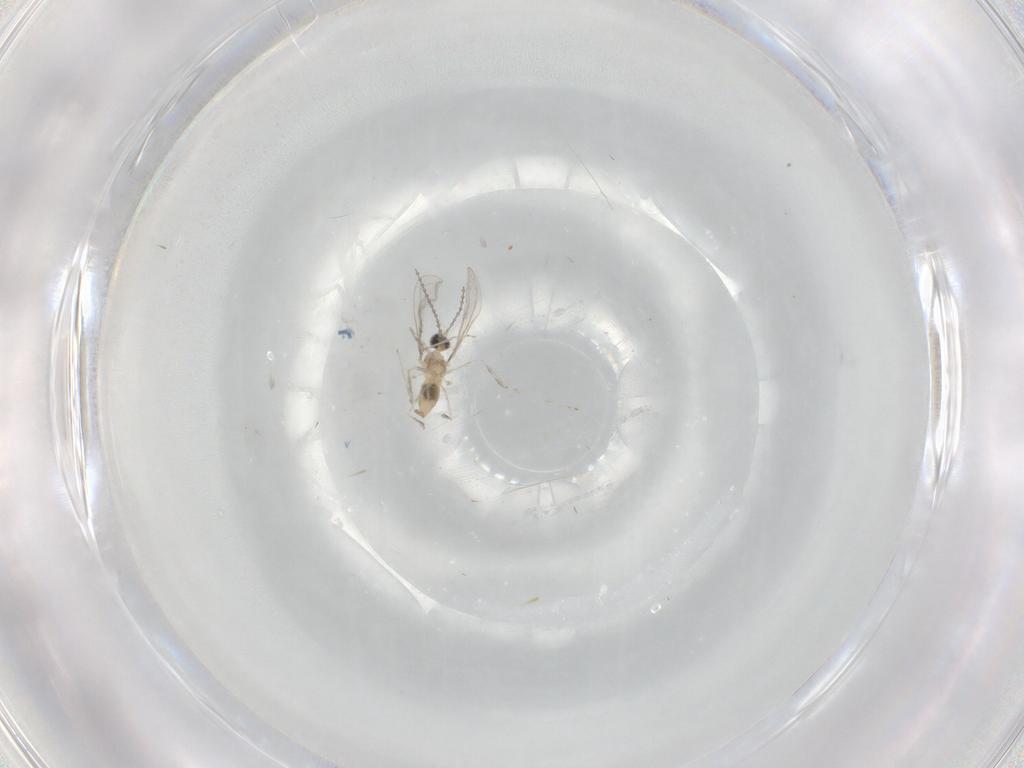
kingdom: Animalia
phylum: Arthropoda
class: Insecta
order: Diptera
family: Cecidomyiidae
